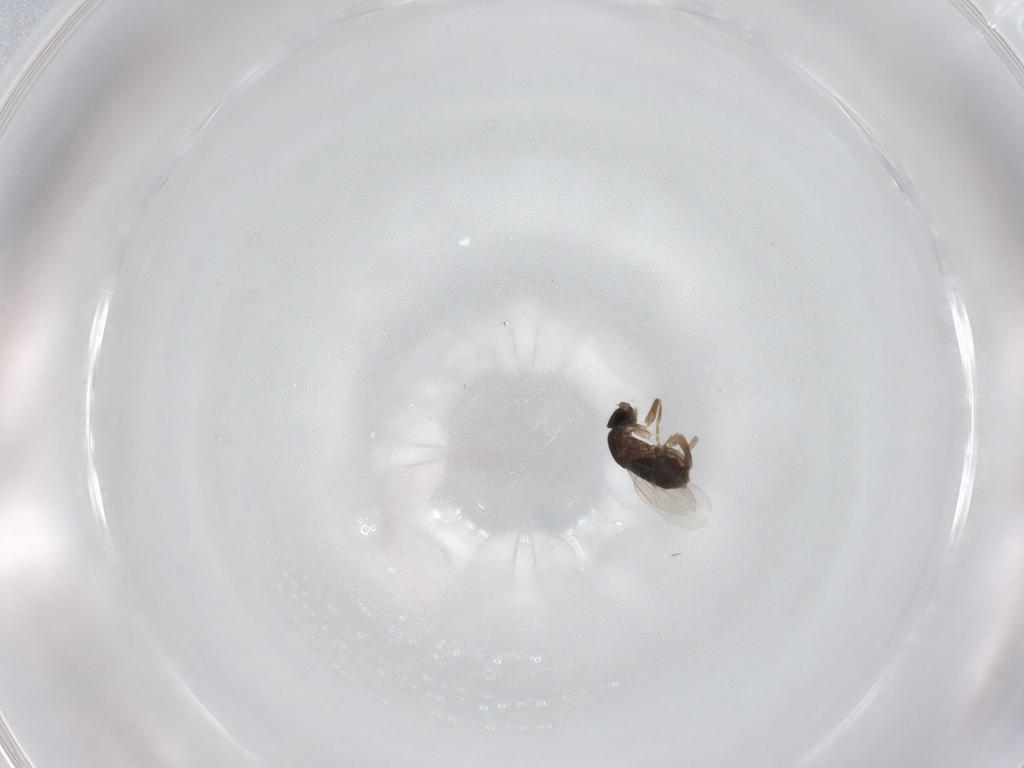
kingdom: Animalia
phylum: Arthropoda
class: Insecta
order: Diptera
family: Phoridae
